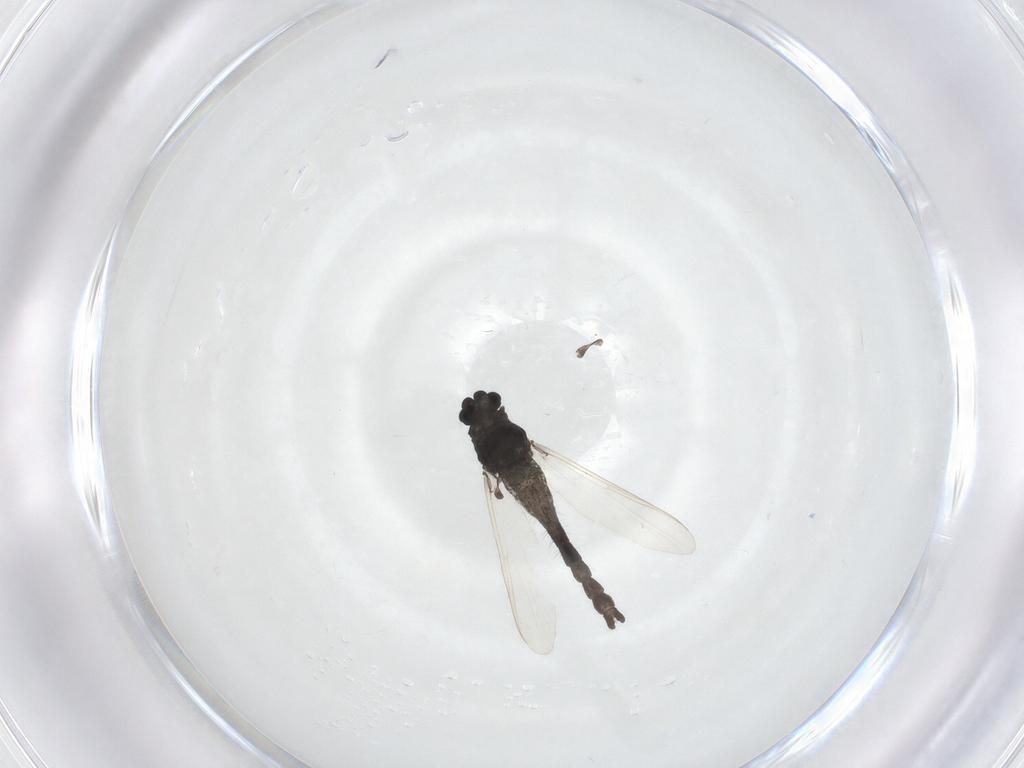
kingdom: Animalia
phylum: Arthropoda
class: Insecta
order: Diptera
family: Chironomidae
